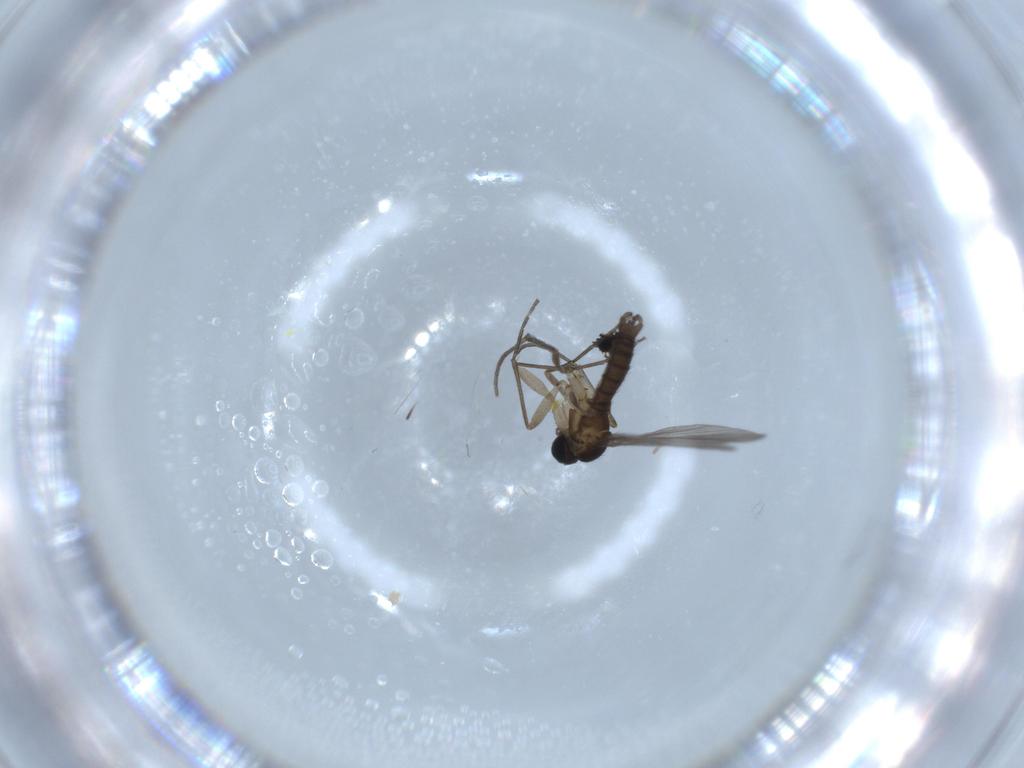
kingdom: Animalia
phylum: Arthropoda
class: Insecta
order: Diptera
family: Sciaridae
